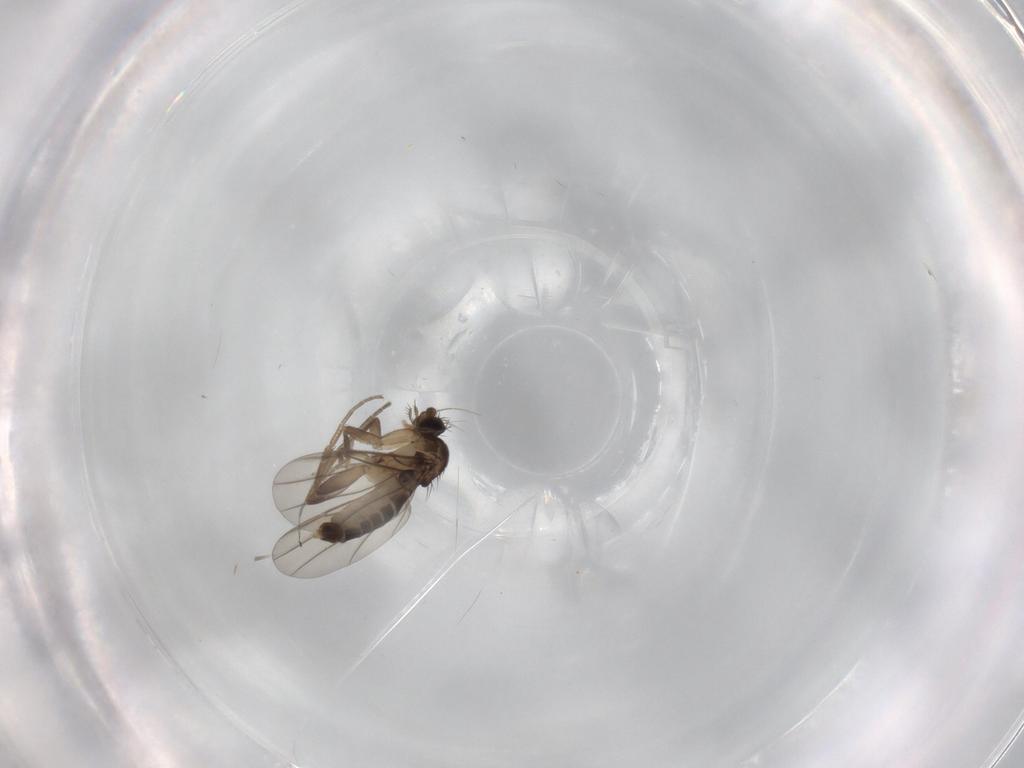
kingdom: Animalia
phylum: Arthropoda
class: Insecta
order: Diptera
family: Phoridae
